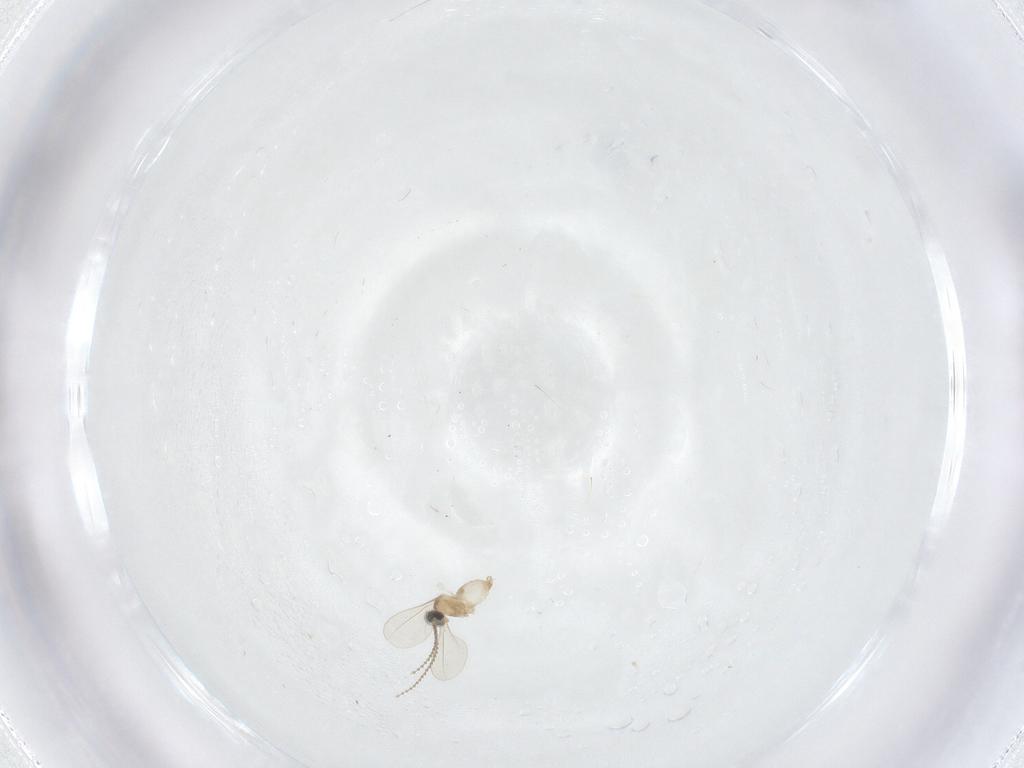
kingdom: Animalia
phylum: Arthropoda
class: Insecta
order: Diptera
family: Cecidomyiidae
